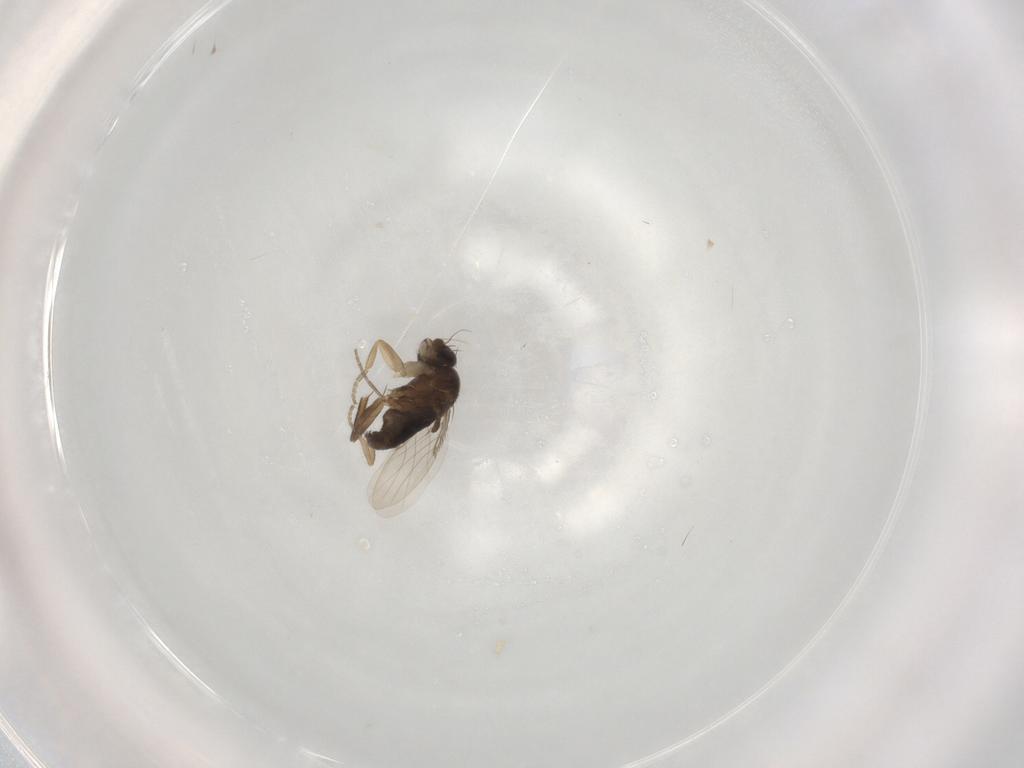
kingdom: Animalia
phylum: Arthropoda
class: Insecta
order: Diptera
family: Phoridae
